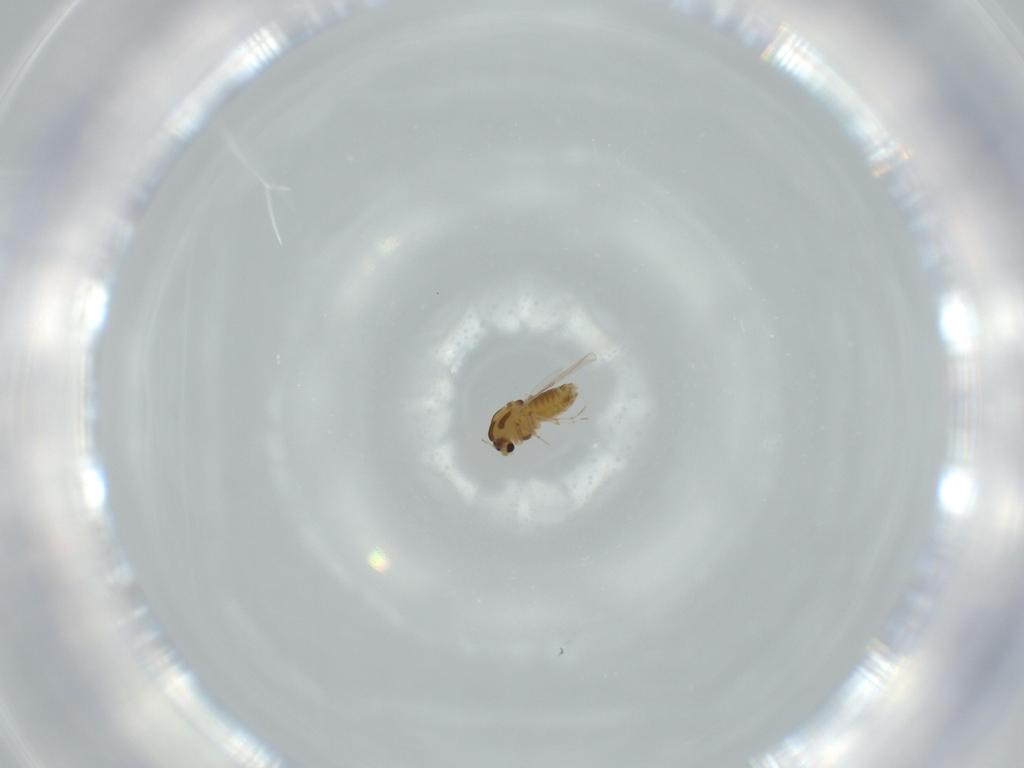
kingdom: Animalia
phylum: Arthropoda
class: Insecta
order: Diptera
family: Chironomidae
